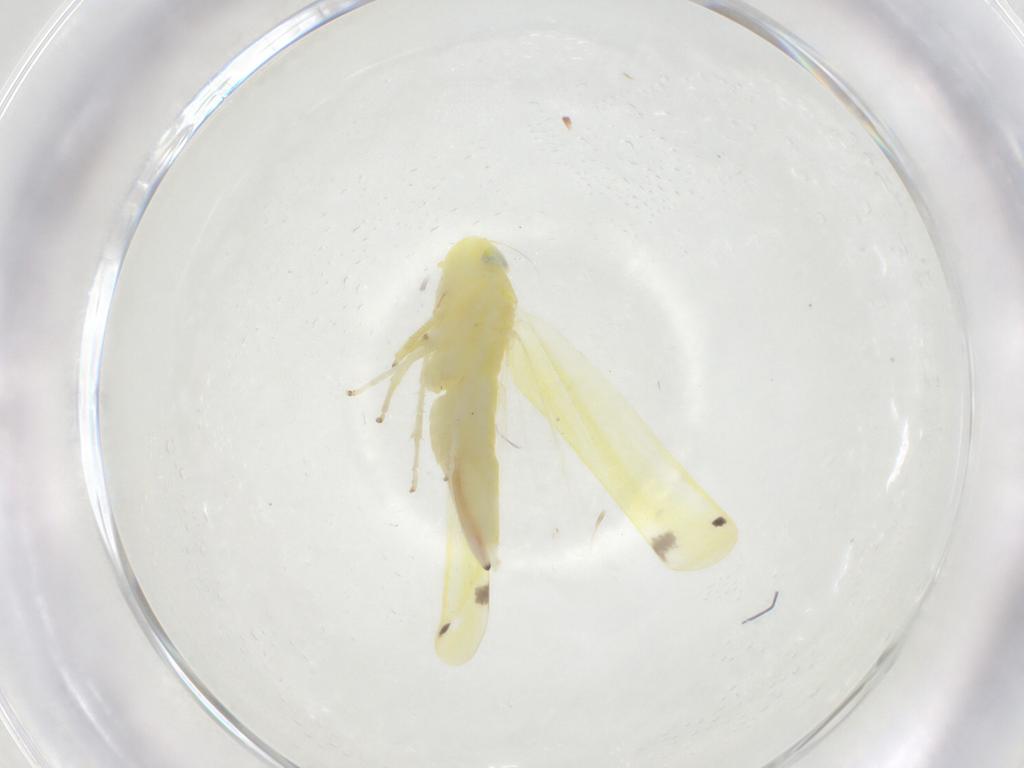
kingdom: Animalia
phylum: Arthropoda
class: Insecta
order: Hemiptera
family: Cicadellidae
